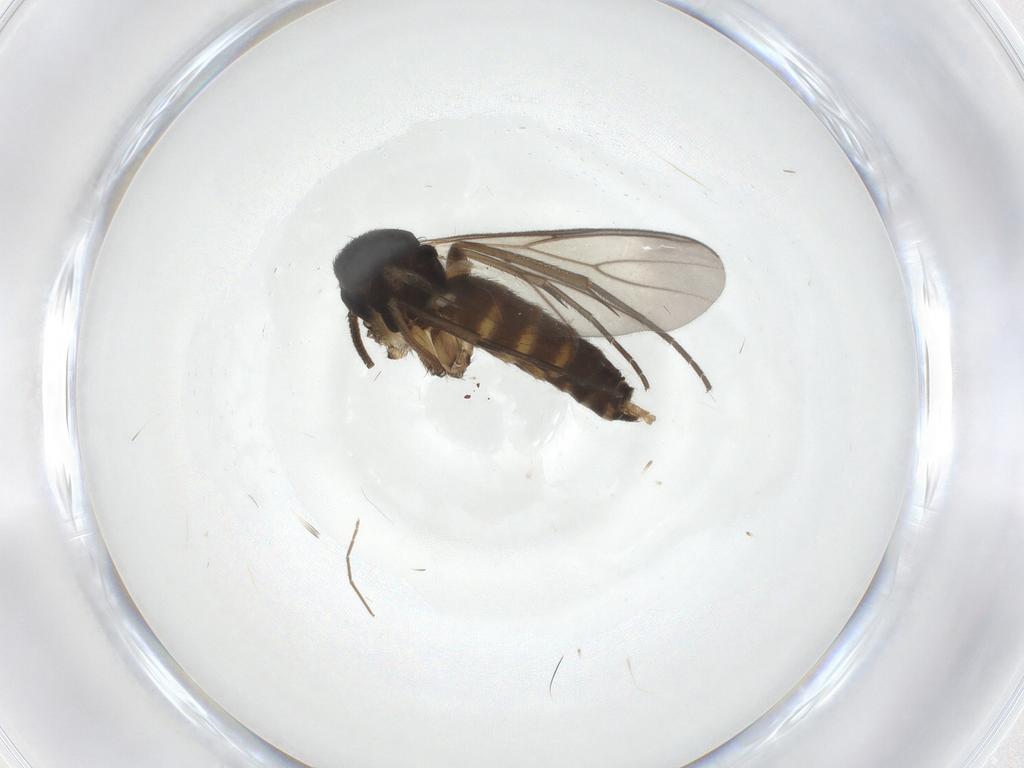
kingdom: Animalia
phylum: Arthropoda
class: Insecta
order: Diptera
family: Mycetophilidae
